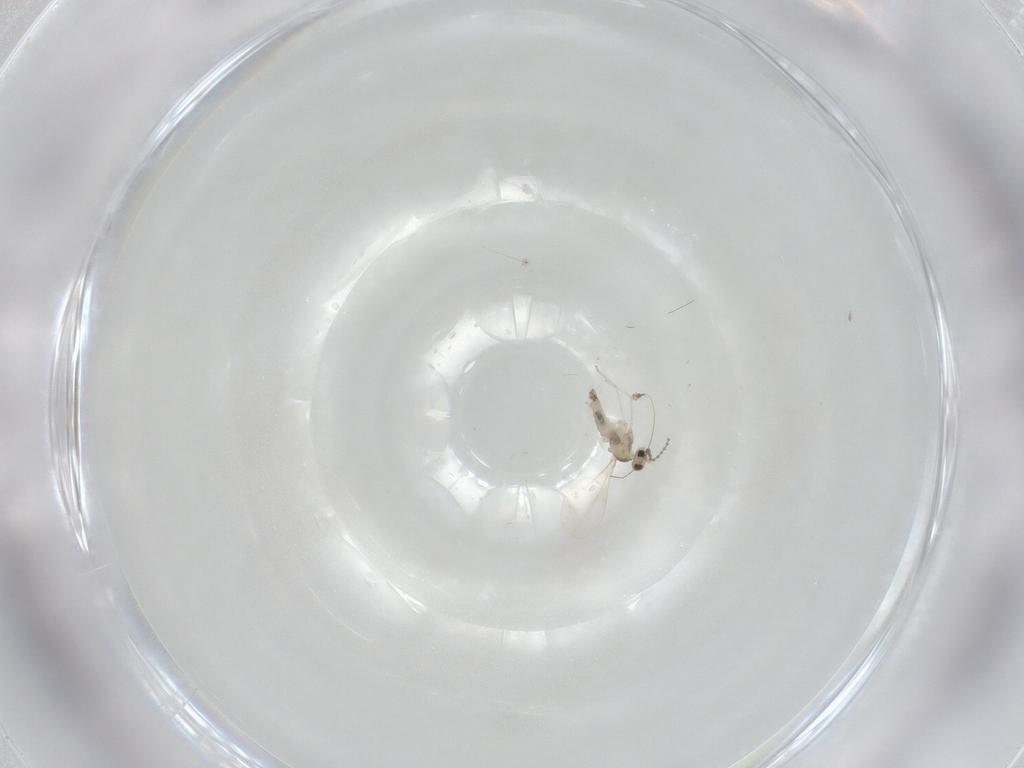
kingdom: Animalia
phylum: Arthropoda
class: Insecta
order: Diptera
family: Cecidomyiidae
